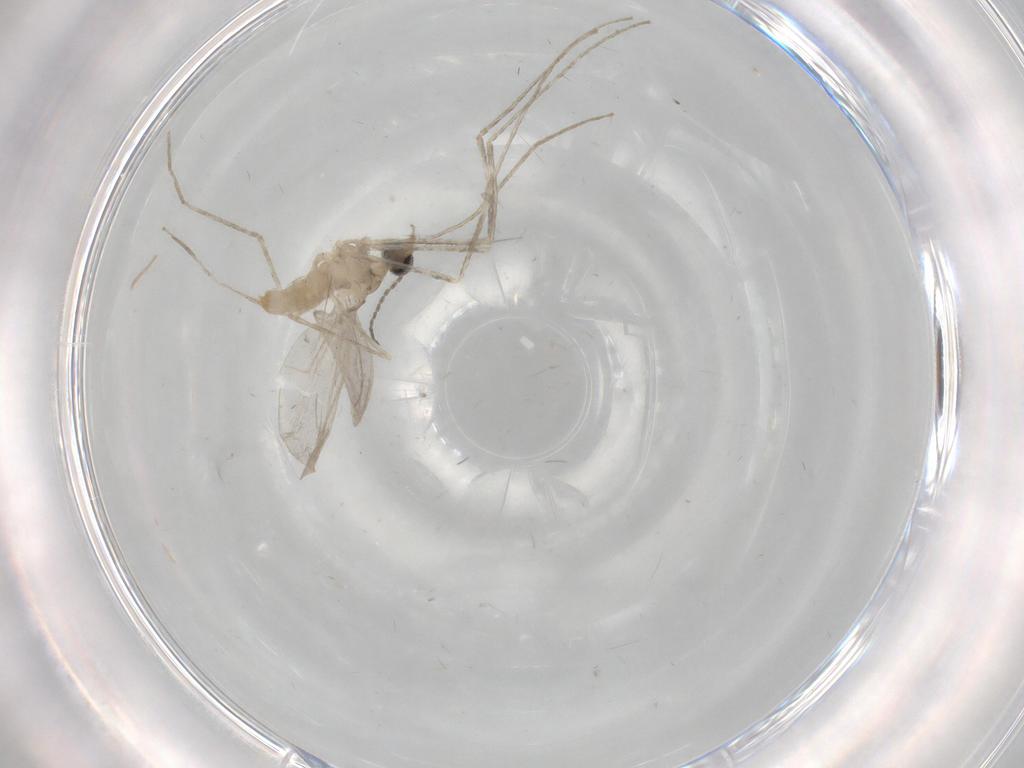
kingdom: Animalia
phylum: Arthropoda
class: Insecta
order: Diptera
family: Cecidomyiidae
